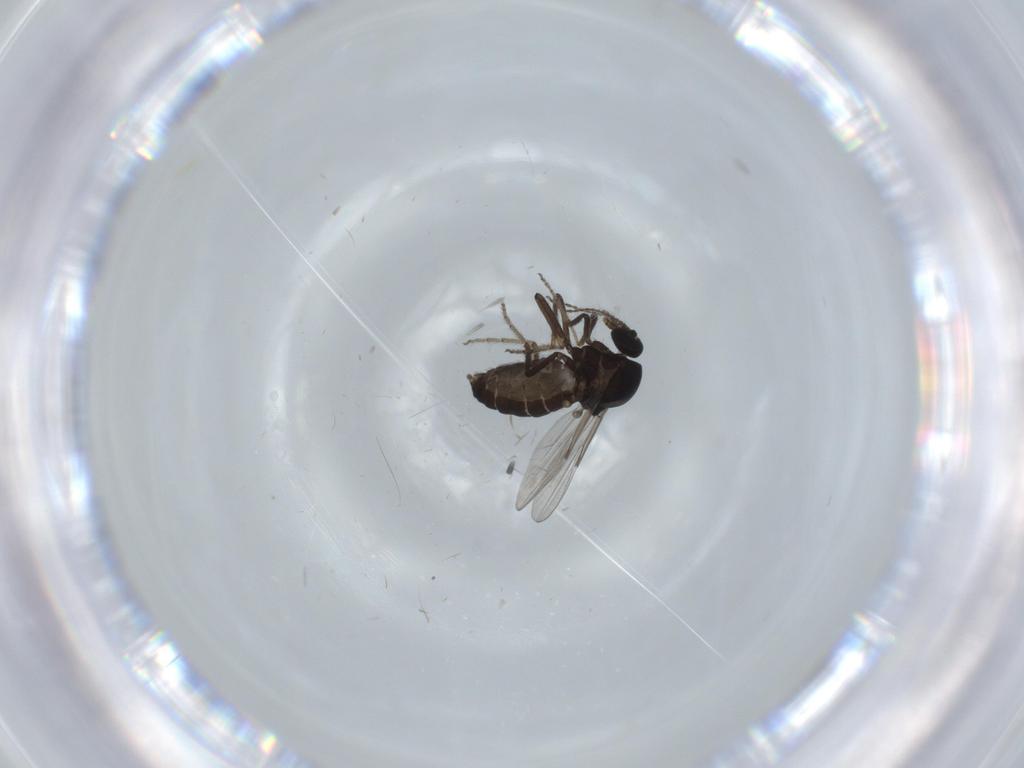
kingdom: Animalia
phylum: Arthropoda
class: Insecta
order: Diptera
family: Ceratopogonidae
